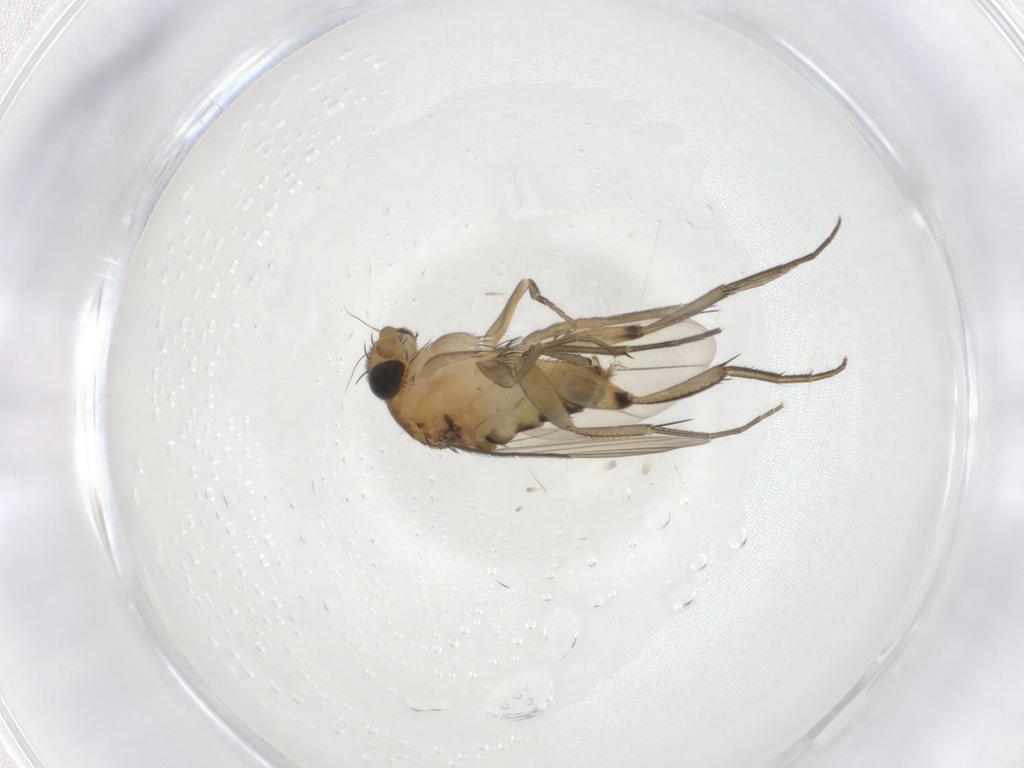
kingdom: Animalia
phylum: Arthropoda
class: Insecta
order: Diptera
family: Keroplatidae
